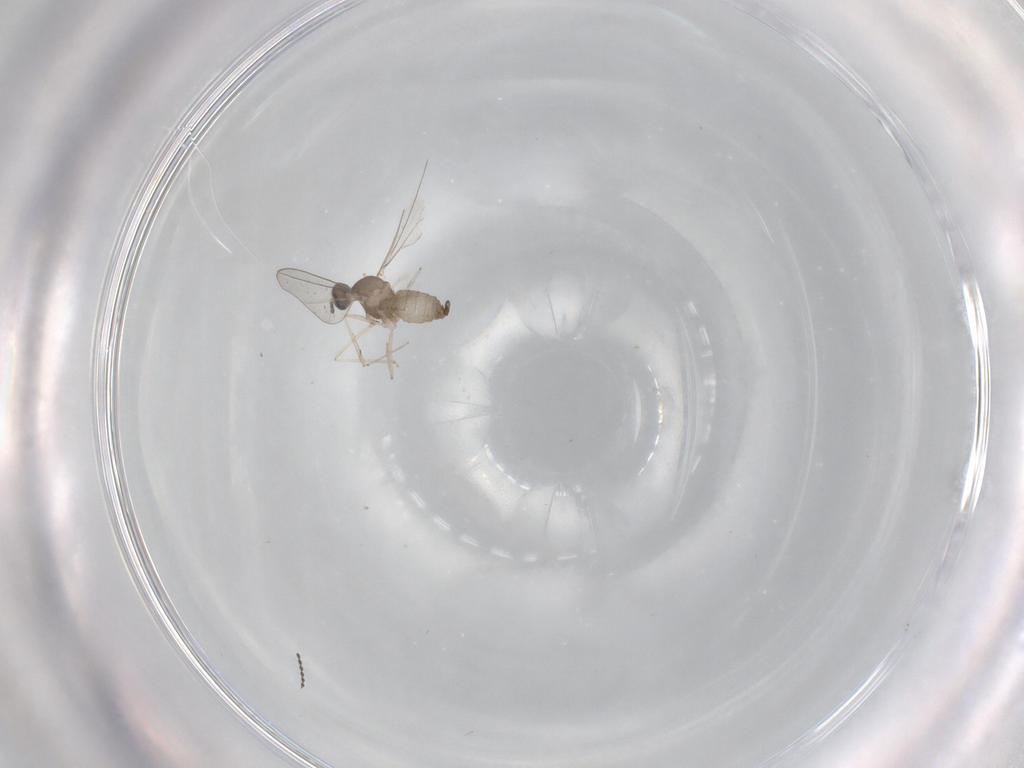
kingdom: Animalia
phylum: Arthropoda
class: Insecta
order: Diptera
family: Cecidomyiidae
